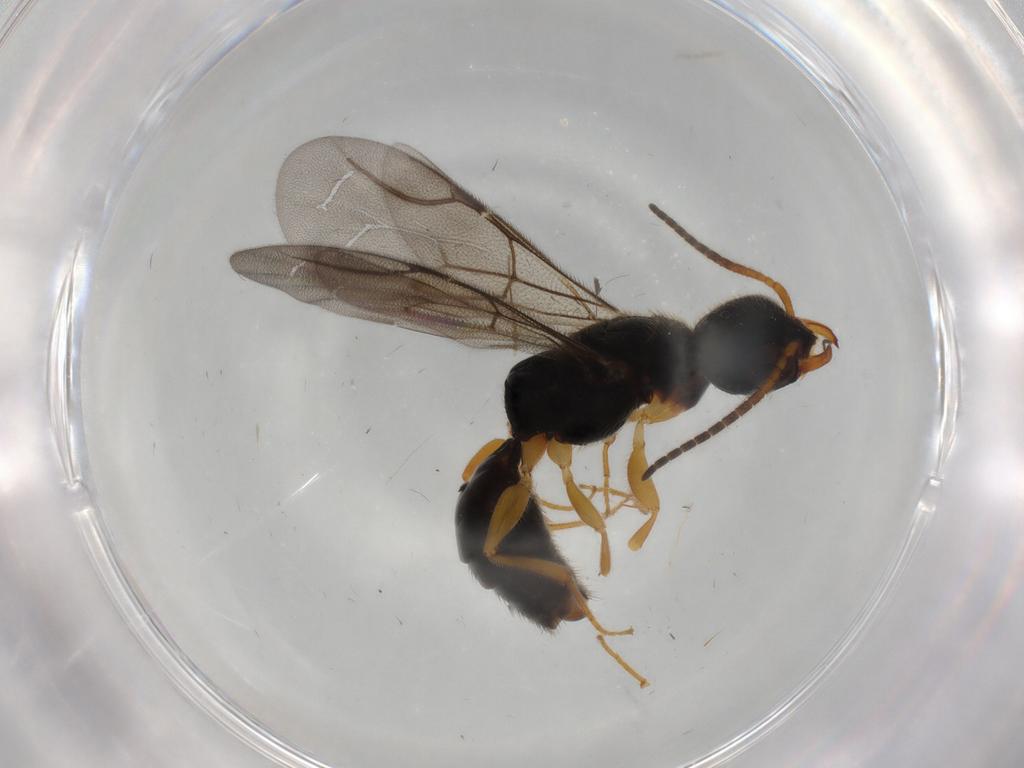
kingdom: Animalia
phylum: Arthropoda
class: Insecta
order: Hymenoptera
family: Bethylidae
